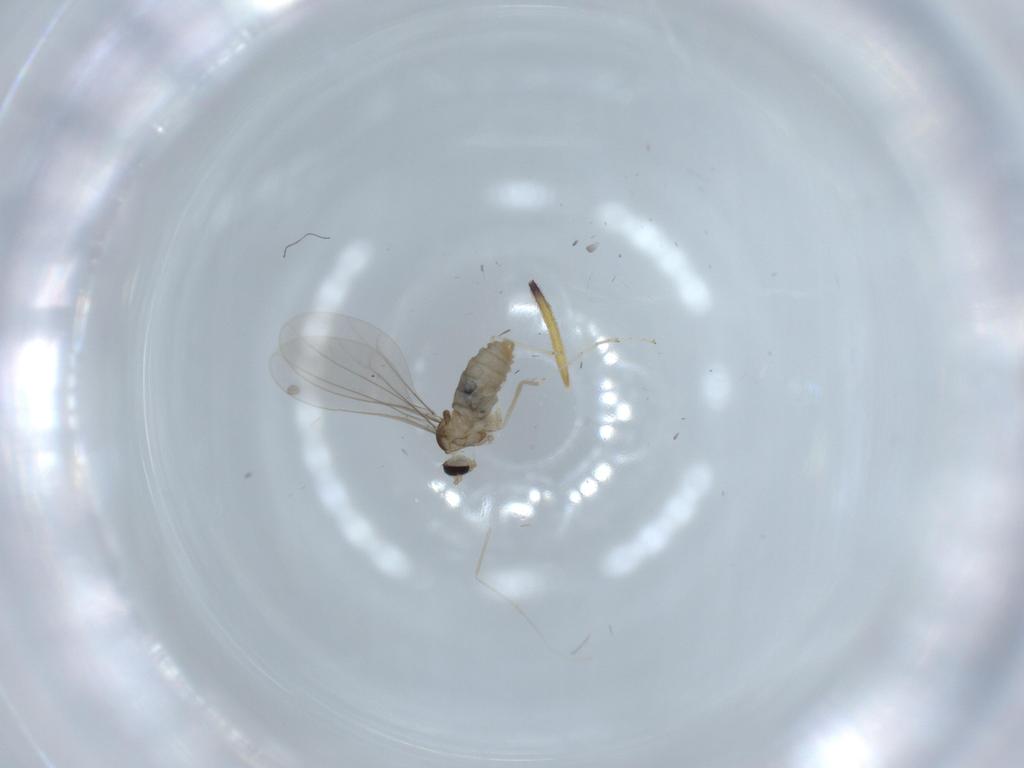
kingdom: Animalia
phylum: Arthropoda
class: Insecta
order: Diptera
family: Cecidomyiidae
